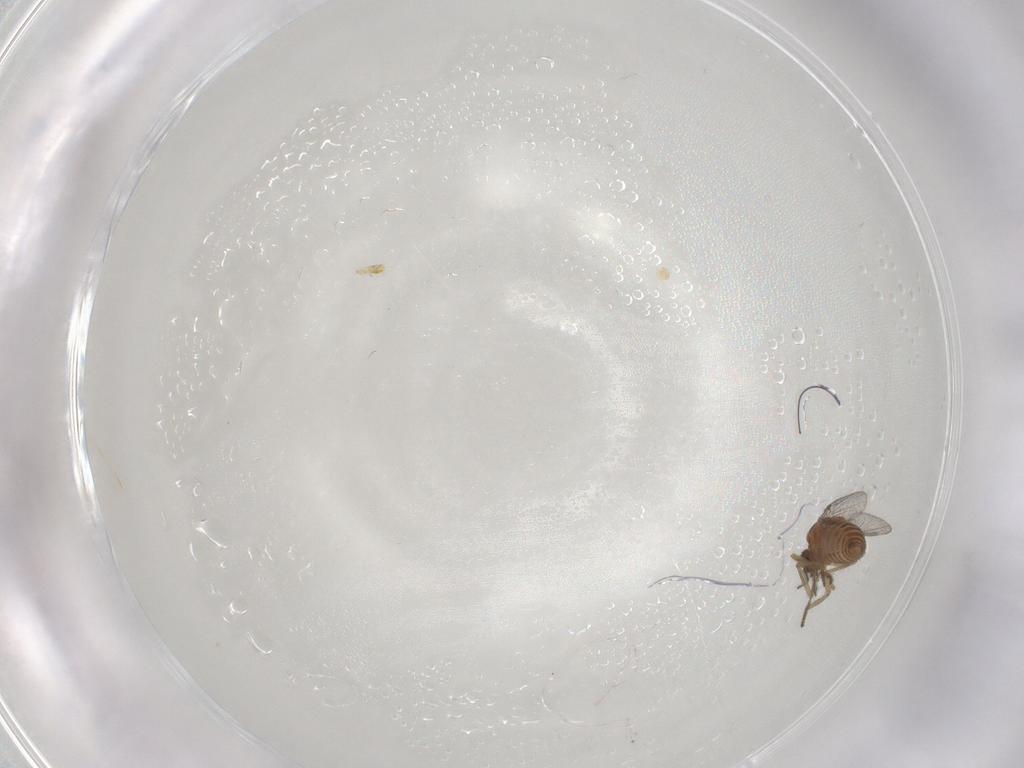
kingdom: Animalia
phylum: Arthropoda
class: Insecta
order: Diptera
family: Ceratopogonidae
